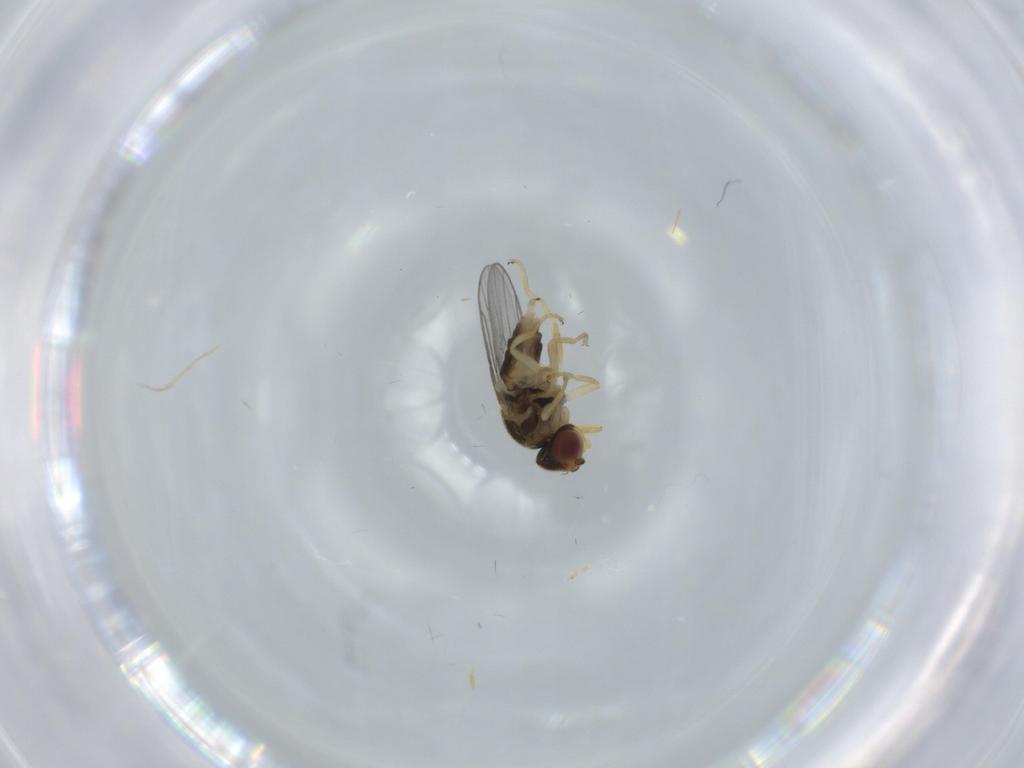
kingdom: Animalia
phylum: Arthropoda
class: Insecta
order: Diptera
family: Chloropidae
